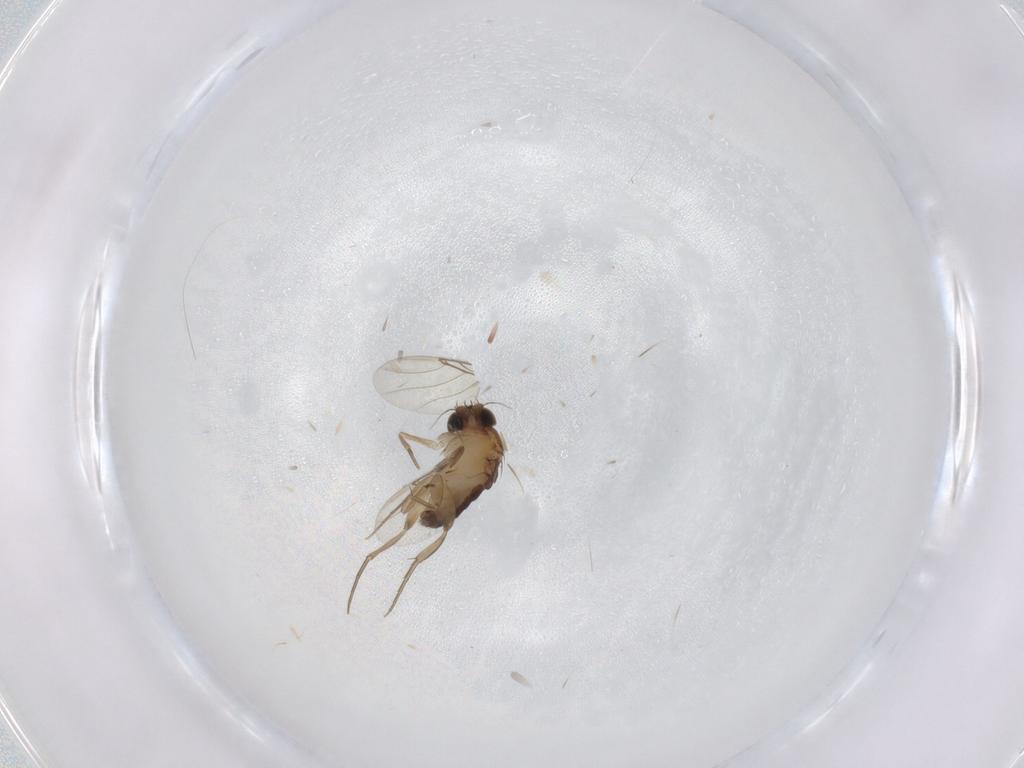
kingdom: Animalia
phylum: Arthropoda
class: Insecta
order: Diptera
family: Phoridae
